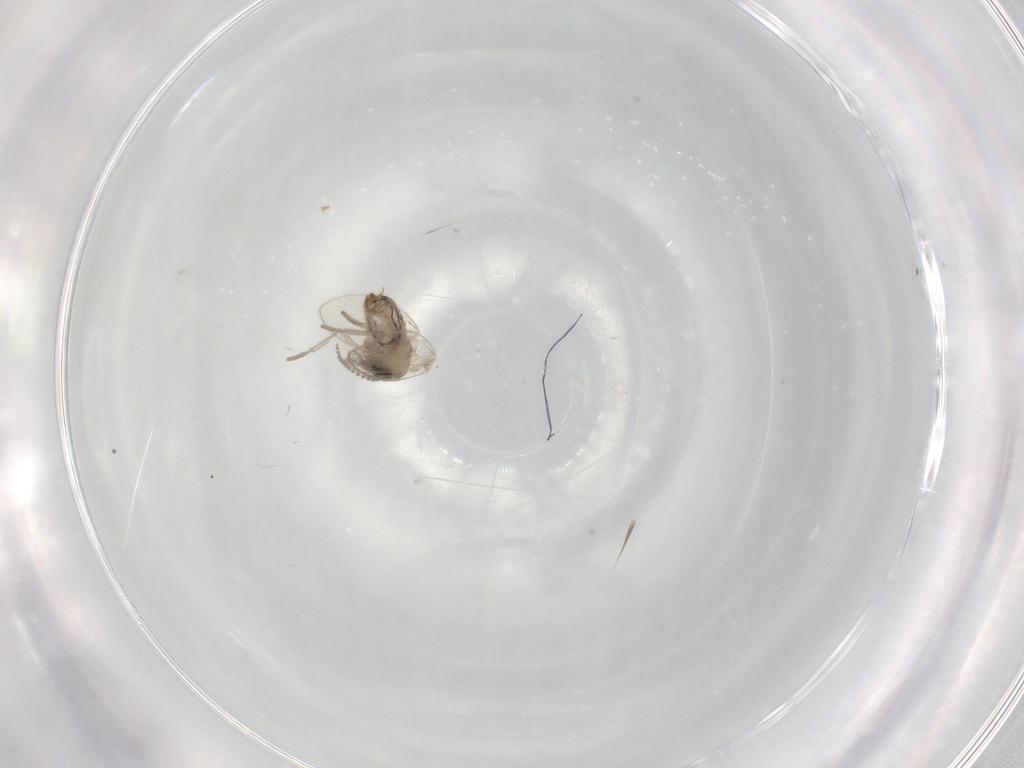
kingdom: Animalia
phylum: Arthropoda
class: Insecta
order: Diptera
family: Psychodidae
